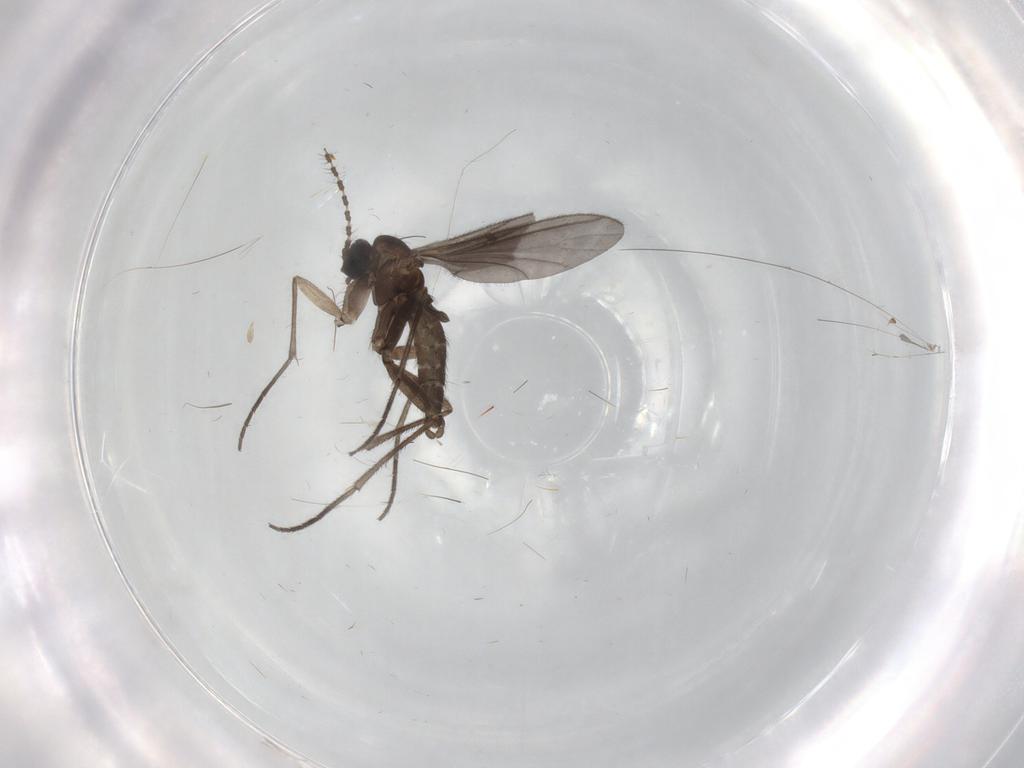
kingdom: Animalia
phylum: Arthropoda
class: Insecta
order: Diptera
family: Sciaridae
